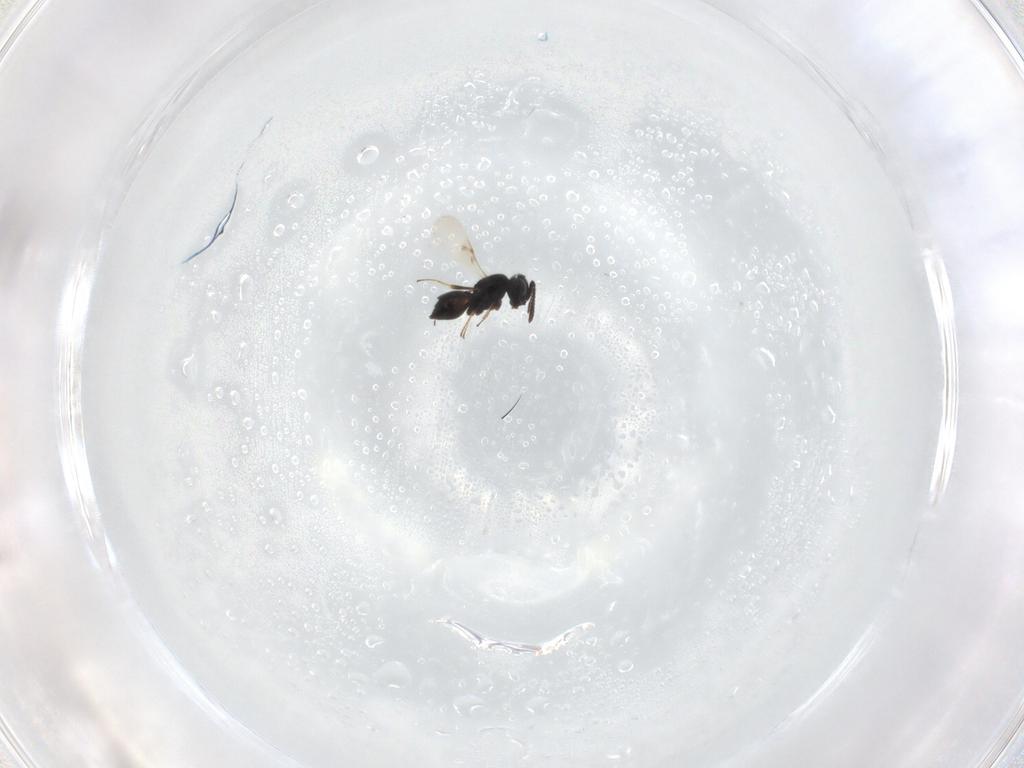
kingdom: Animalia
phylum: Arthropoda
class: Insecta
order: Hymenoptera
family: Scelionidae
